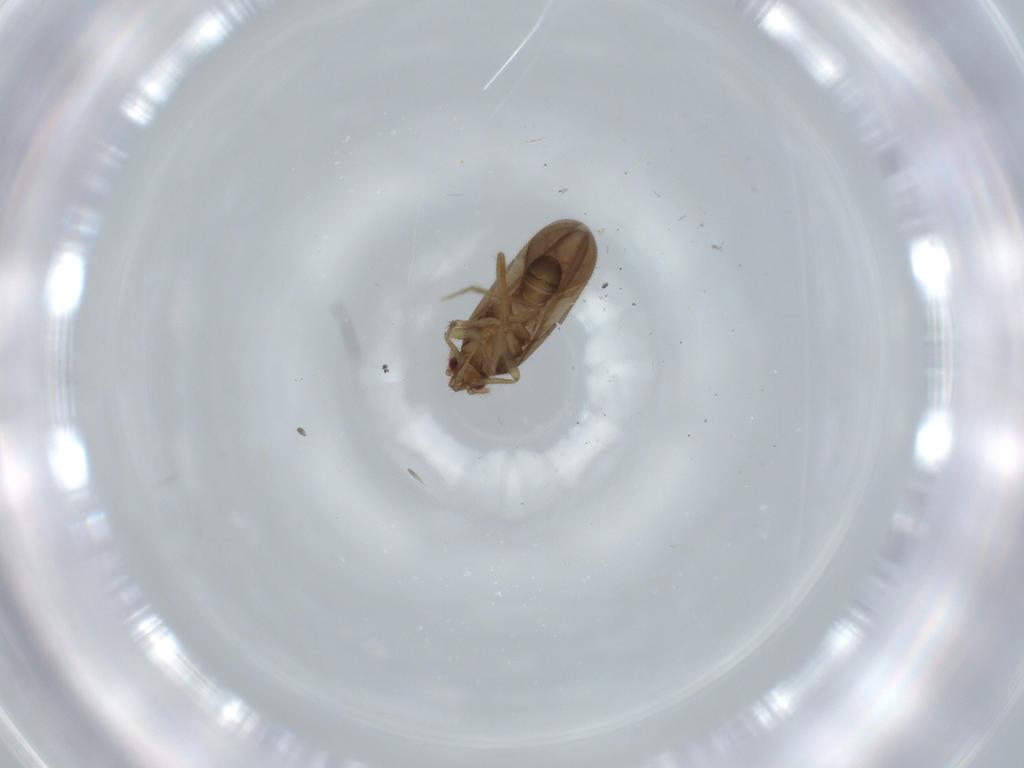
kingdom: Animalia
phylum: Arthropoda
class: Insecta
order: Hemiptera
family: Ceratocombidae
